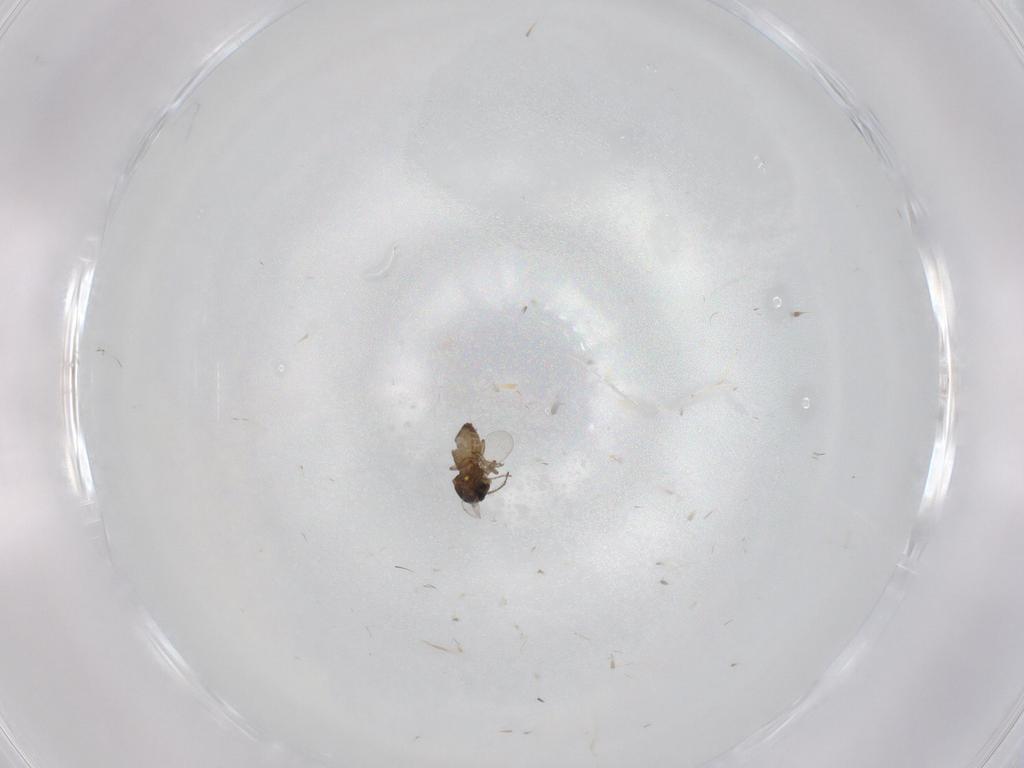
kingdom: Animalia
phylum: Arthropoda
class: Insecta
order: Diptera
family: Ceratopogonidae
